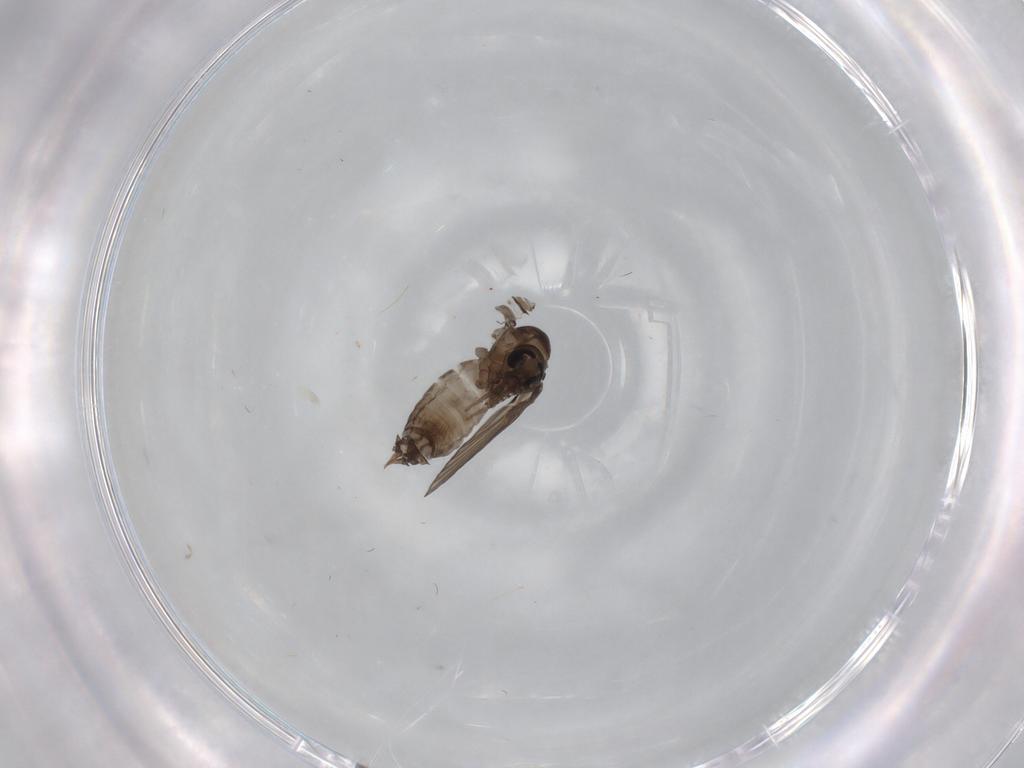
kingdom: Animalia
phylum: Arthropoda
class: Insecta
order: Diptera
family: Psychodidae
